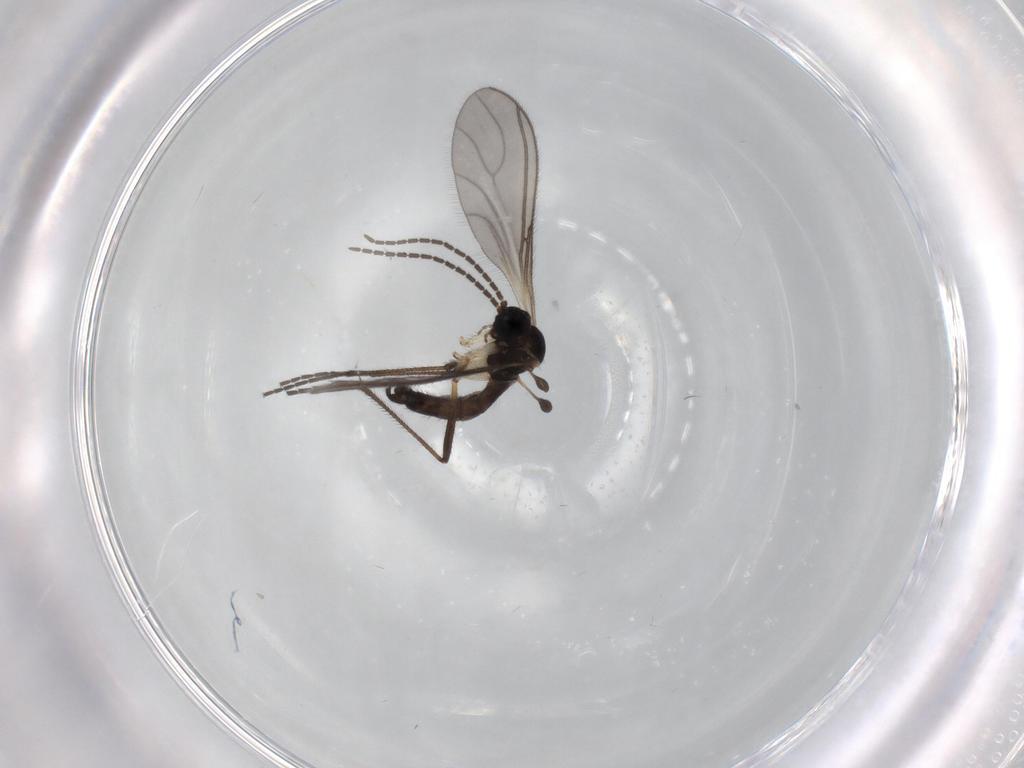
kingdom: Animalia
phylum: Arthropoda
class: Insecta
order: Diptera
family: Sciaridae
